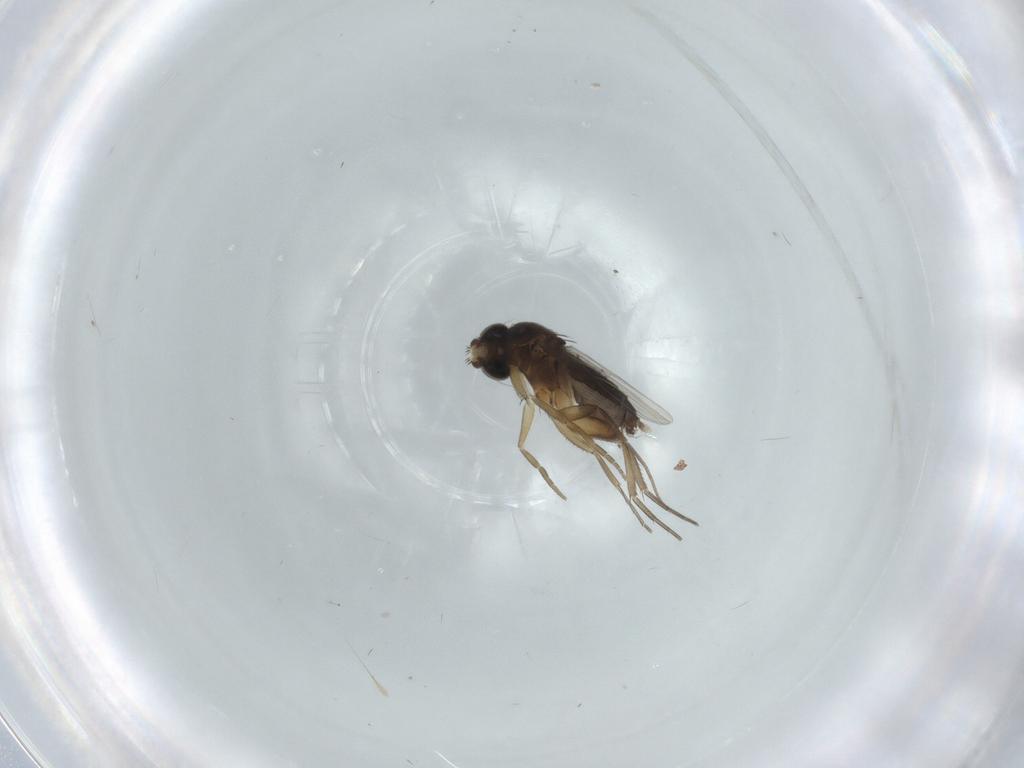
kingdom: Animalia
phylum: Arthropoda
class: Insecta
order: Diptera
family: Phoridae
